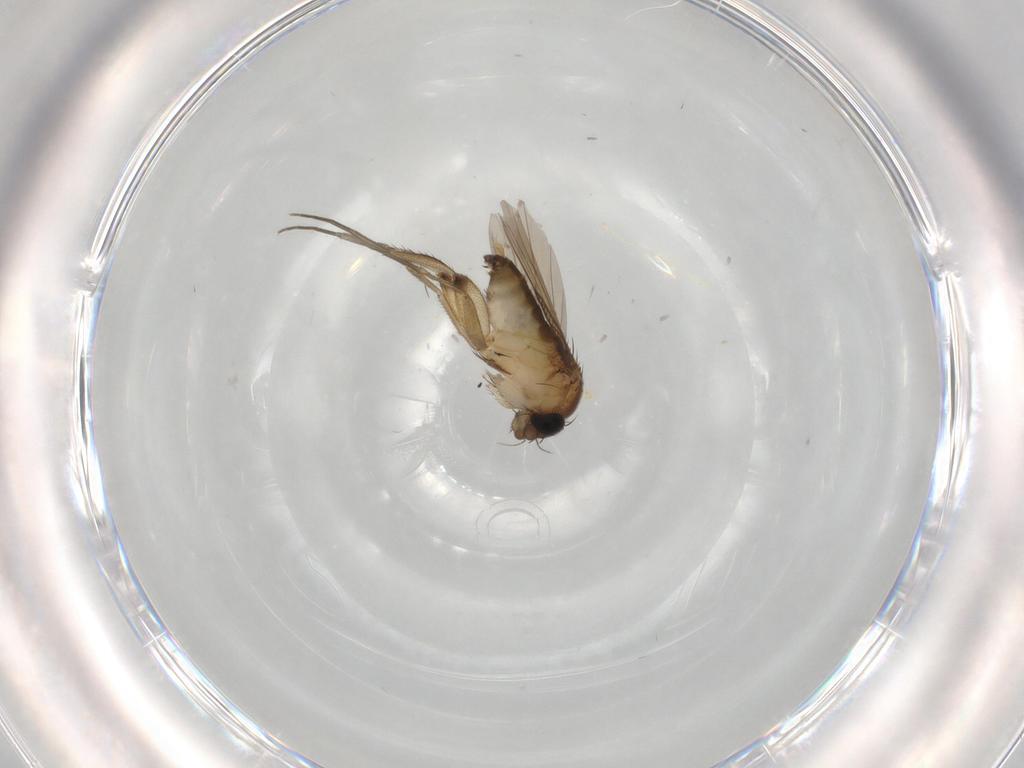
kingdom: Animalia
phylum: Arthropoda
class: Insecta
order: Diptera
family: Phoridae
